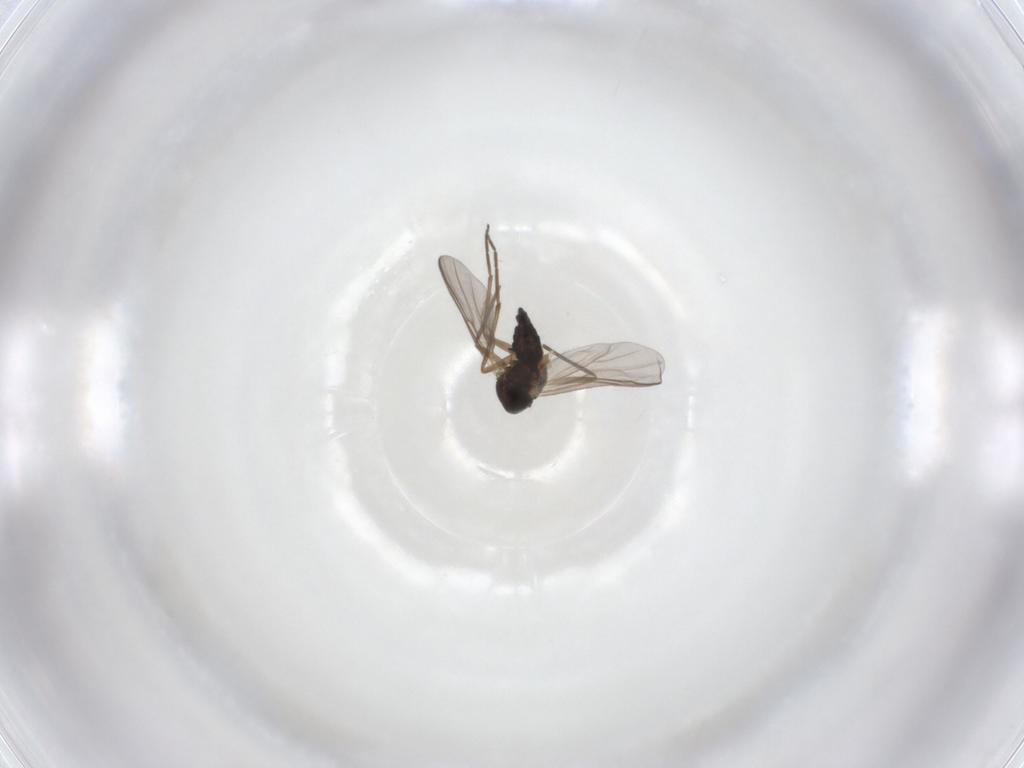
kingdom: Animalia
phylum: Arthropoda
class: Insecta
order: Diptera
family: Chironomidae
